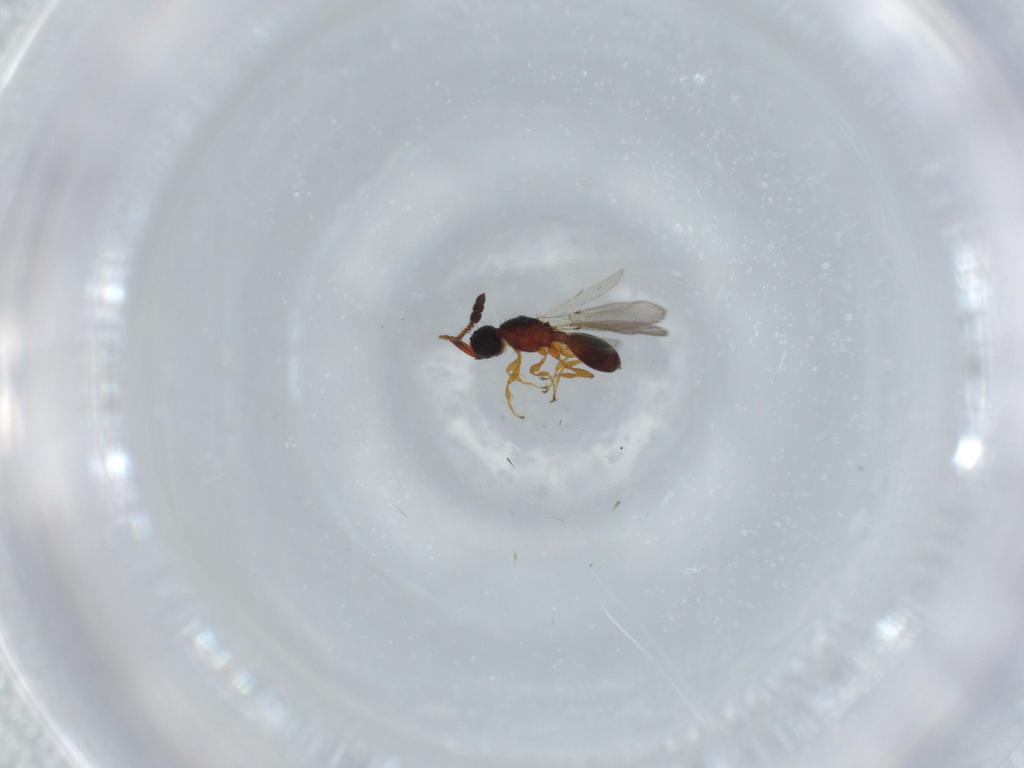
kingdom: Animalia
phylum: Arthropoda
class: Insecta
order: Hymenoptera
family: Diapriidae
